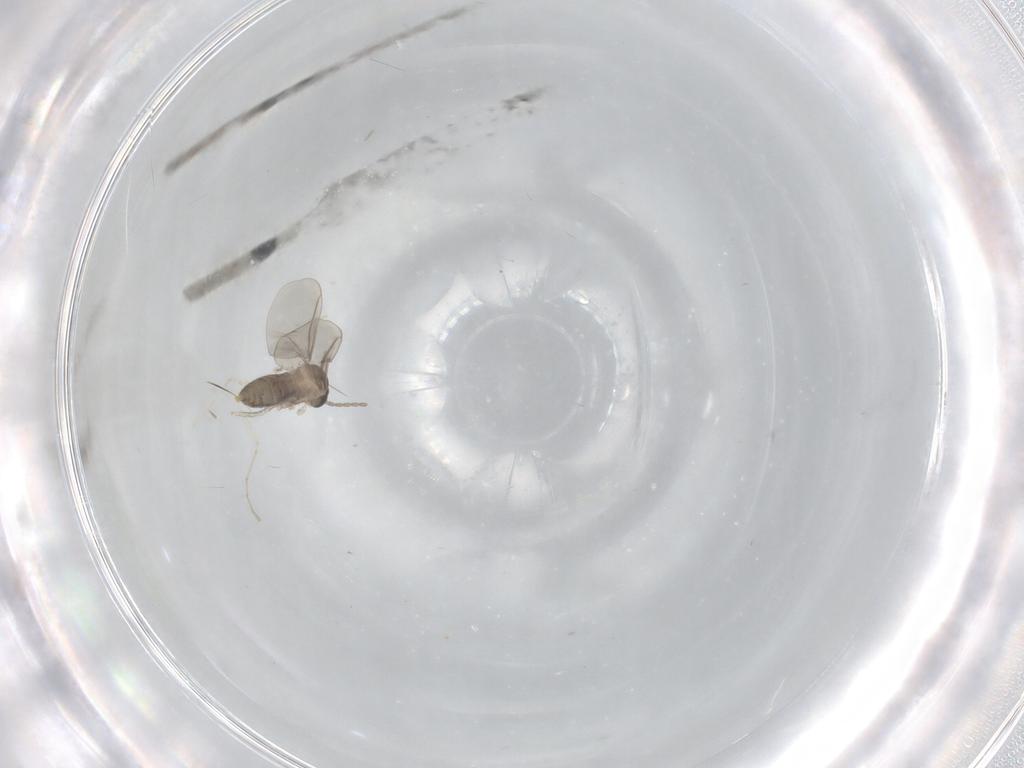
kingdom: Animalia
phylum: Arthropoda
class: Insecta
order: Diptera
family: Cecidomyiidae
